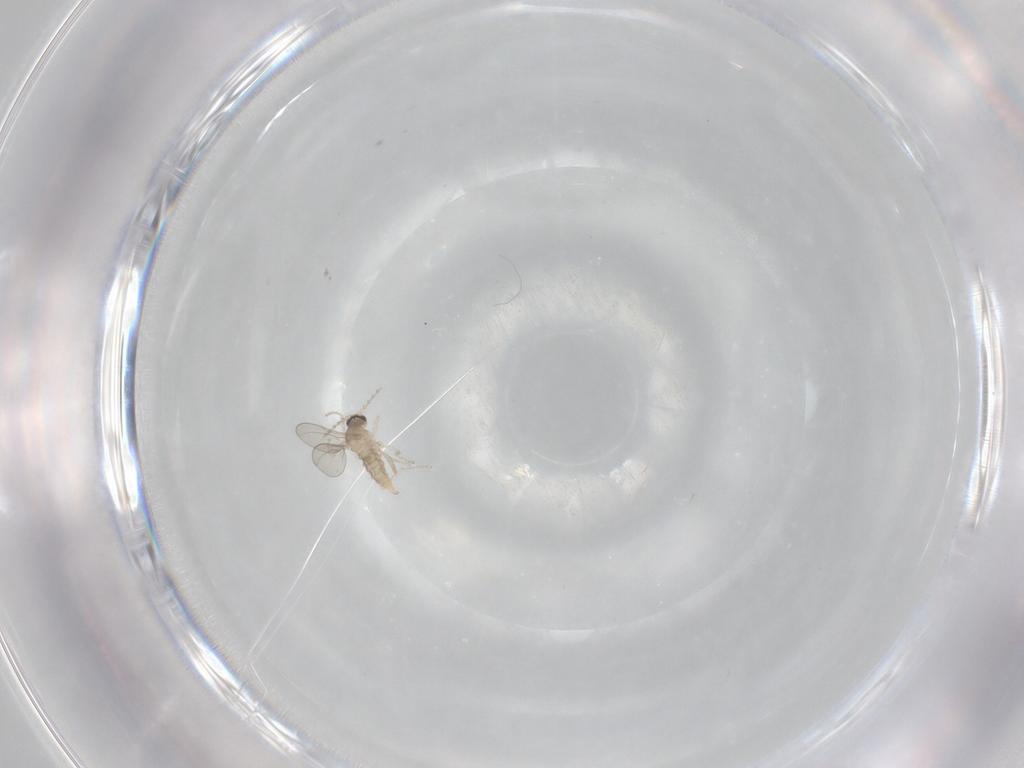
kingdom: Animalia
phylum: Arthropoda
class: Insecta
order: Diptera
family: Cecidomyiidae
